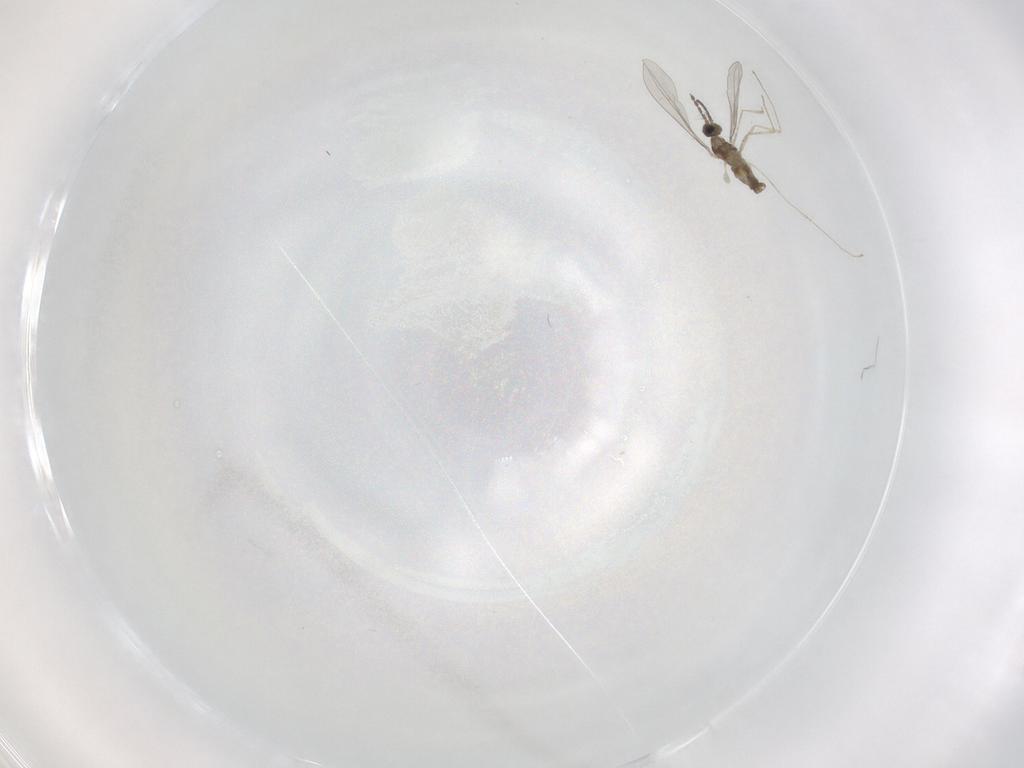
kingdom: Animalia
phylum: Arthropoda
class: Insecta
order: Diptera
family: Cecidomyiidae
